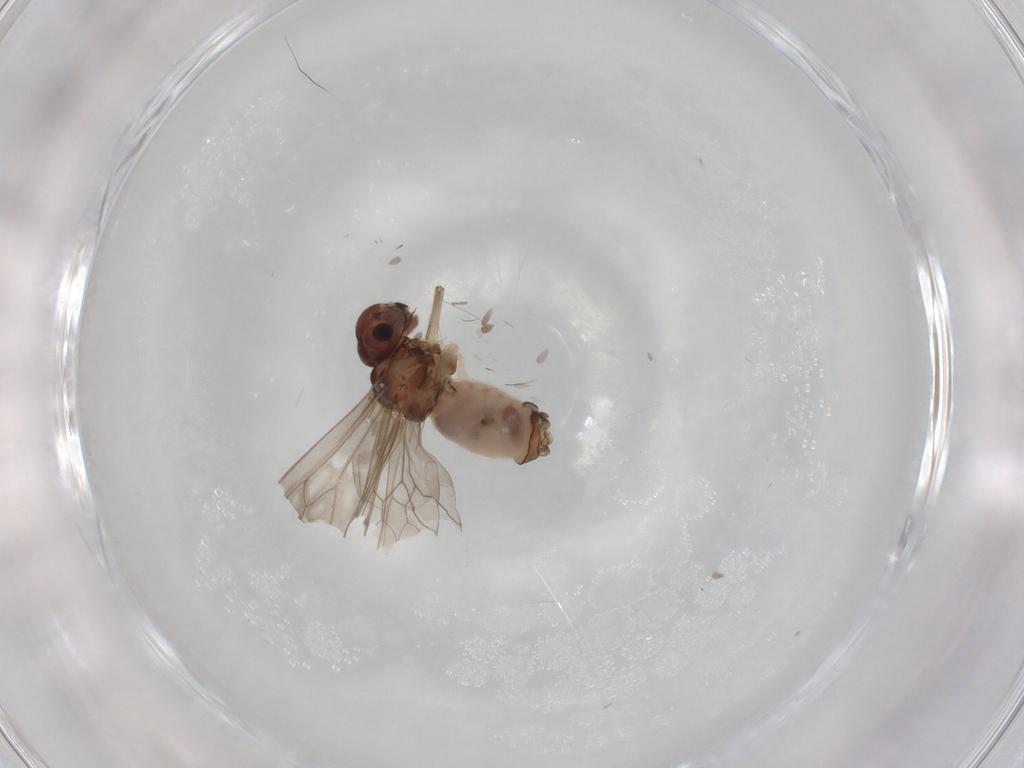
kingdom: Animalia
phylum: Arthropoda
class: Insecta
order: Psocodea
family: Peripsocidae
